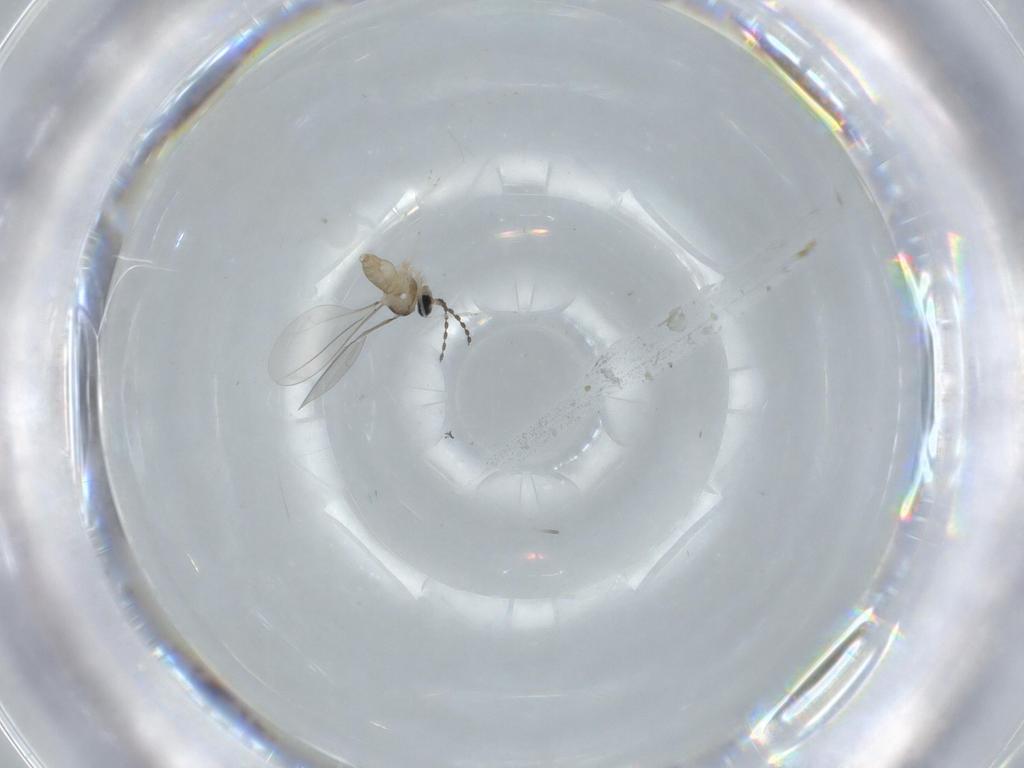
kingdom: Animalia
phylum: Arthropoda
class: Insecta
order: Diptera
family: Cecidomyiidae
